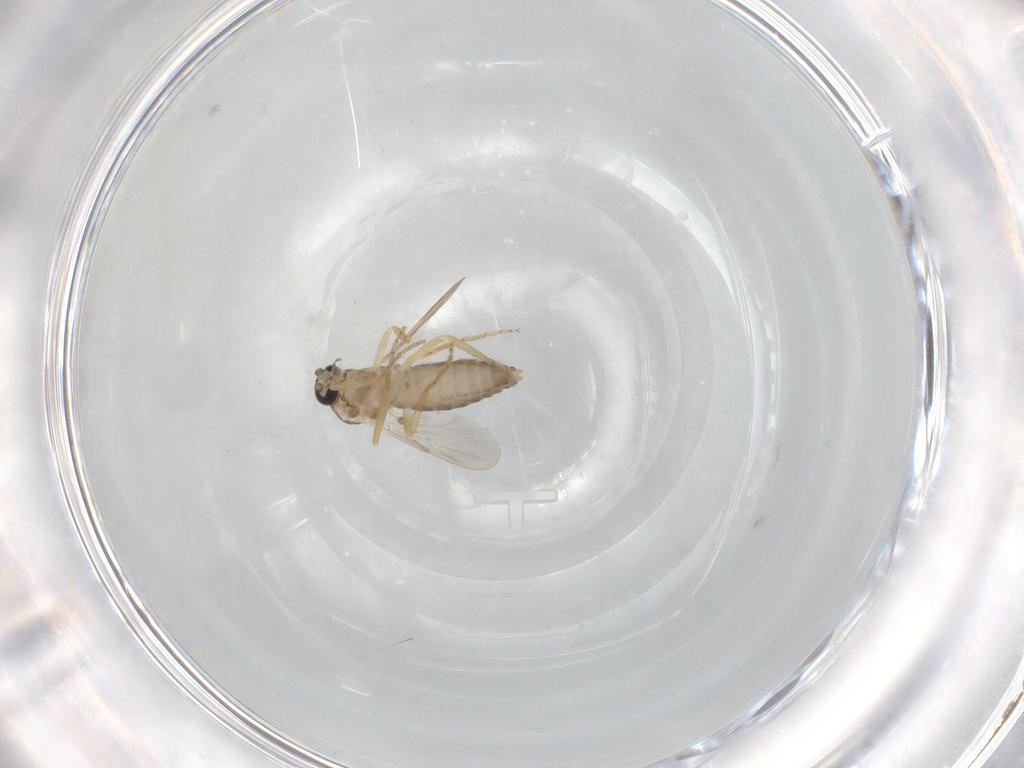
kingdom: Animalia
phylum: Arthropoda
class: Insecta
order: Diptera
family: Ceratopogonidae
